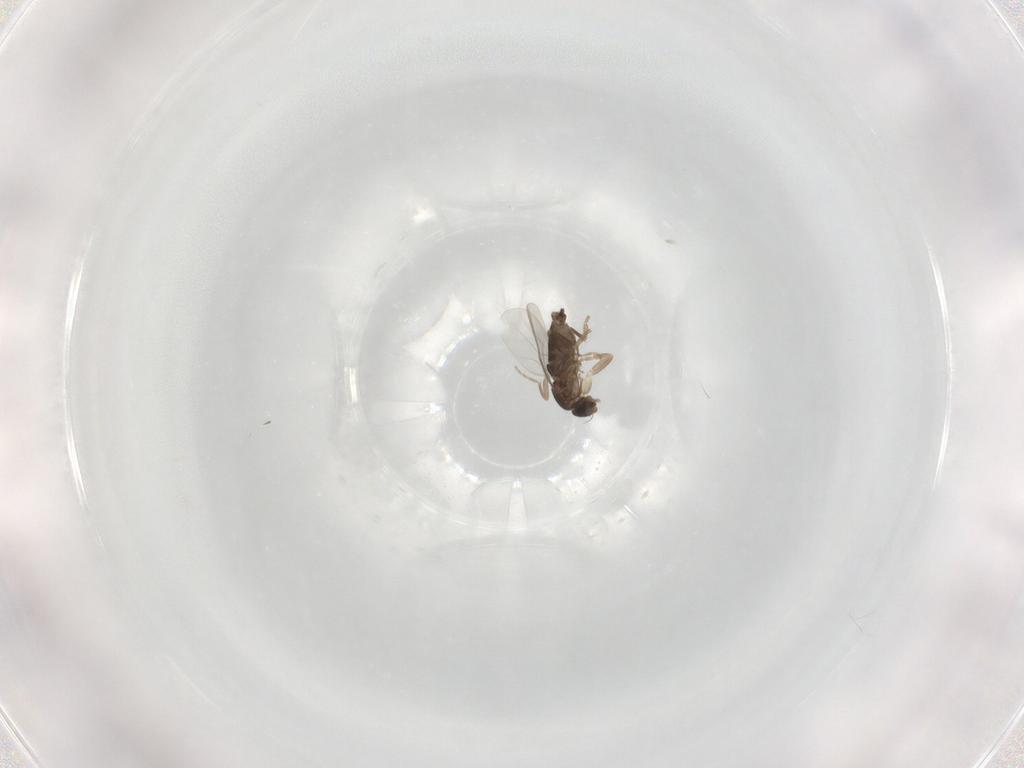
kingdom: Animalia
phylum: Arthropoda
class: Insecta
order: Diptera
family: Phoridae
